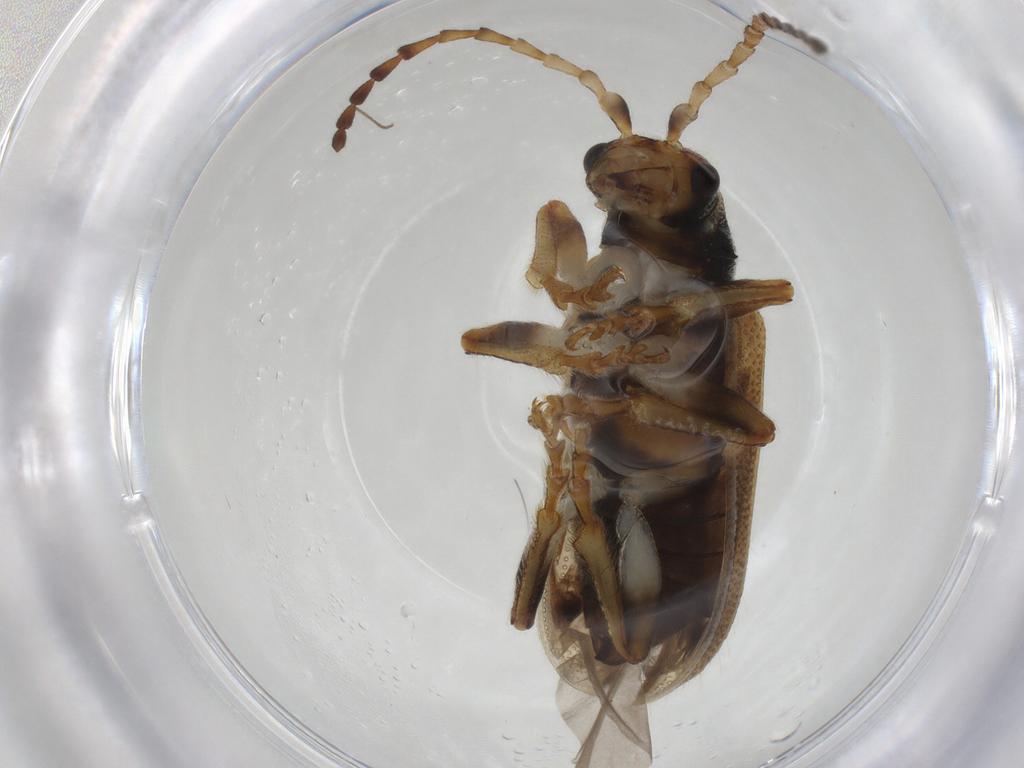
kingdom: Animalia
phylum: Arthropoda
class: Insecta
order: Coleoptera
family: Chrysomelidae
